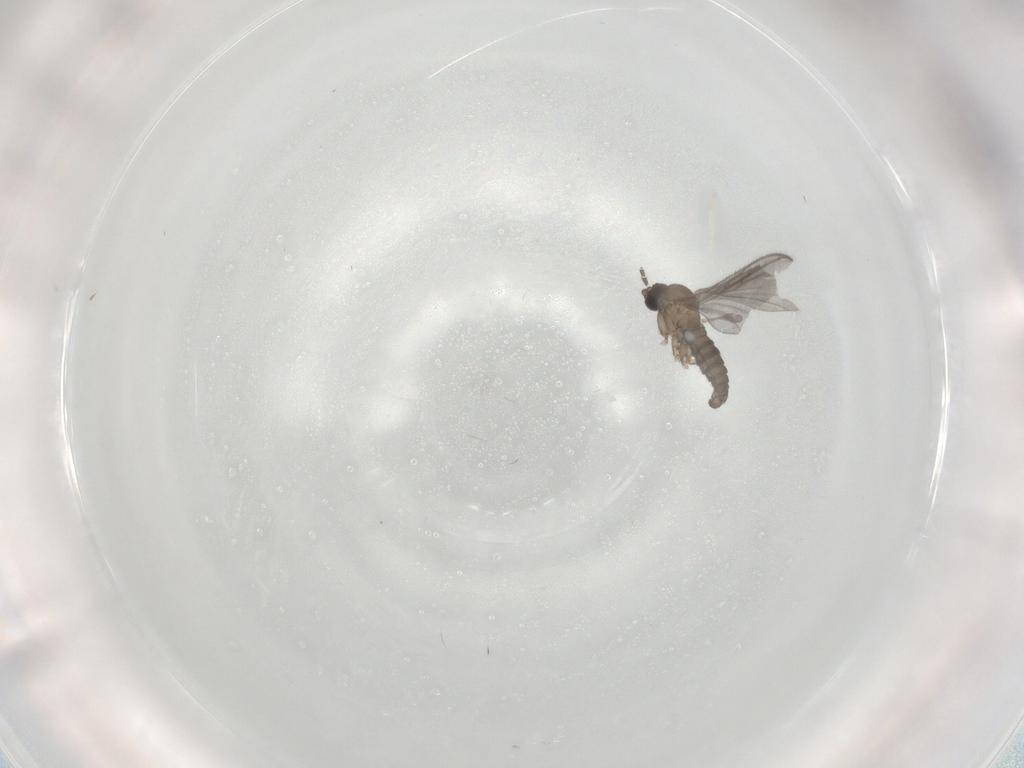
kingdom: Animalia
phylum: Arthropoda
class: Insecta
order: Diptera
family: Sciaridae
